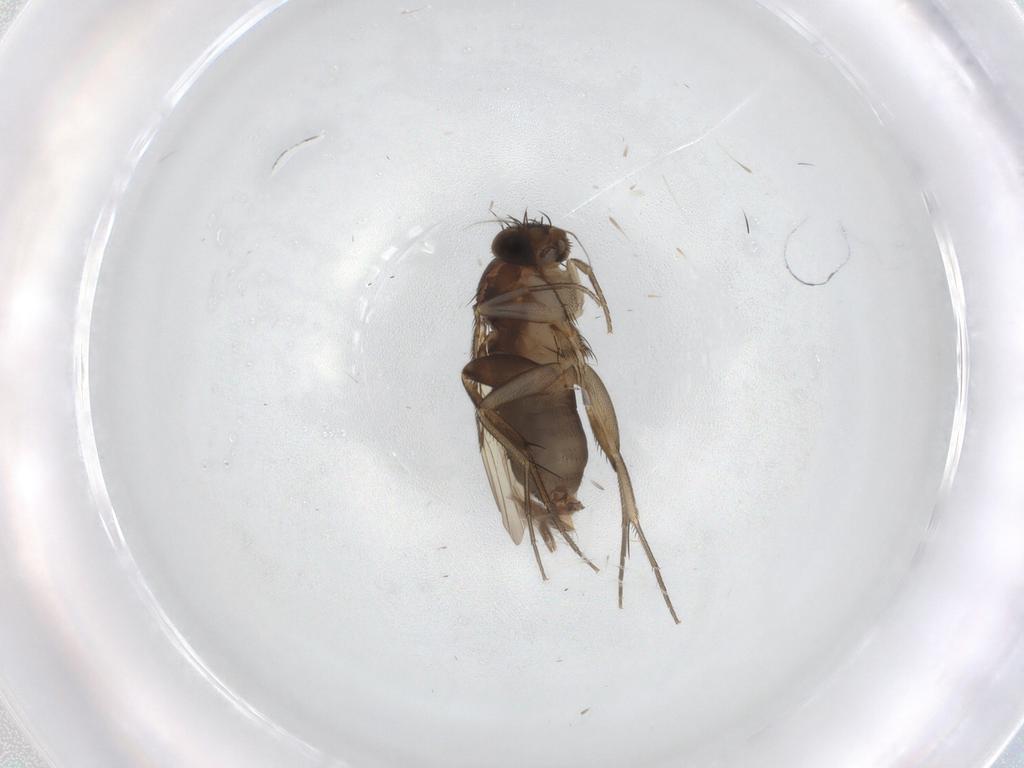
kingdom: Animalia
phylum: Arthropoda
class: Insecta
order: Diptera
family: Phoridae
